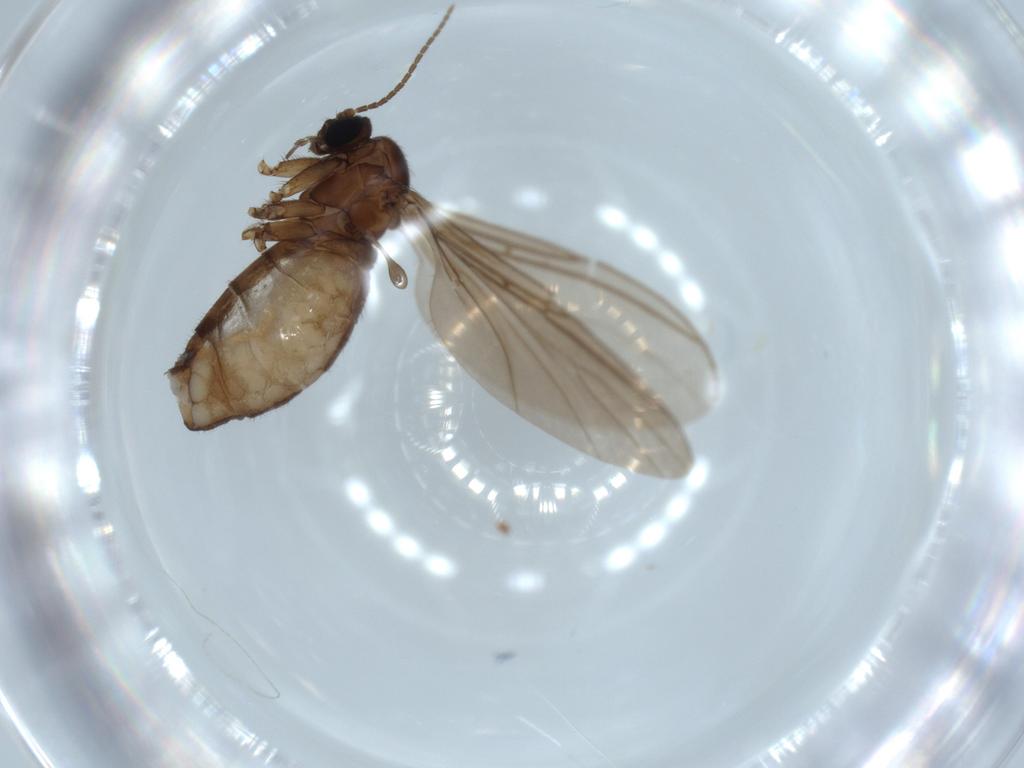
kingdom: Animalia
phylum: Arthropoda
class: Insecta
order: Diptera
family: Sciaridae
